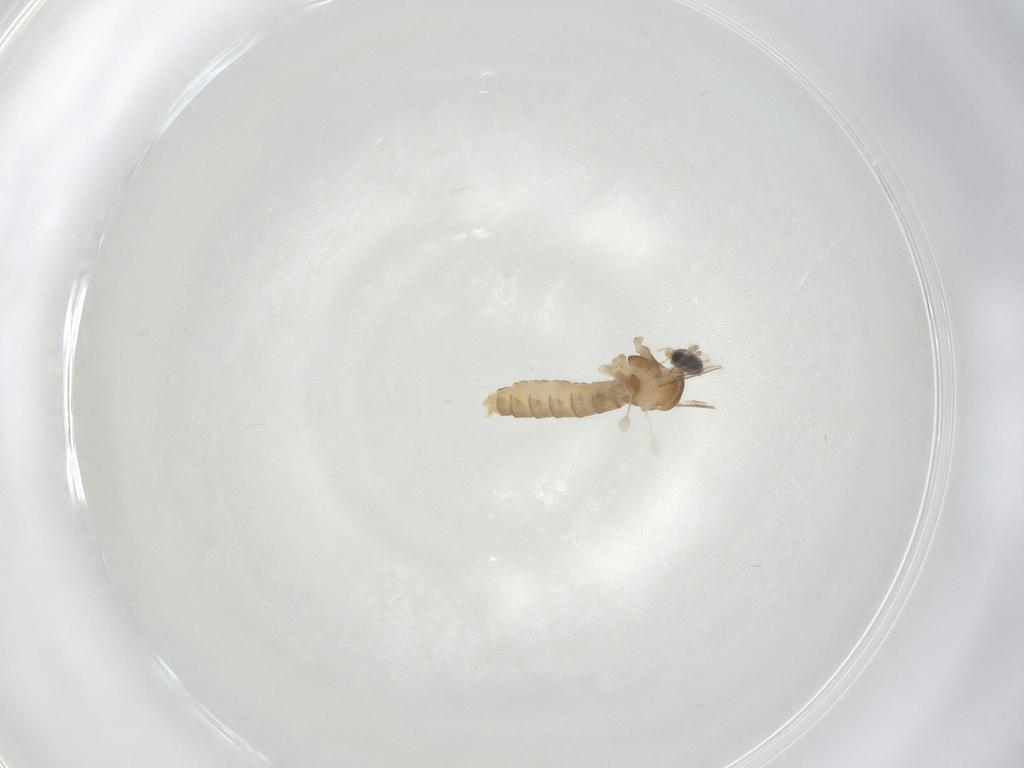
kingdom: Animalia
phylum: Arthropoda
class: Insecta
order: Diptera
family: Cecidomyiidae
